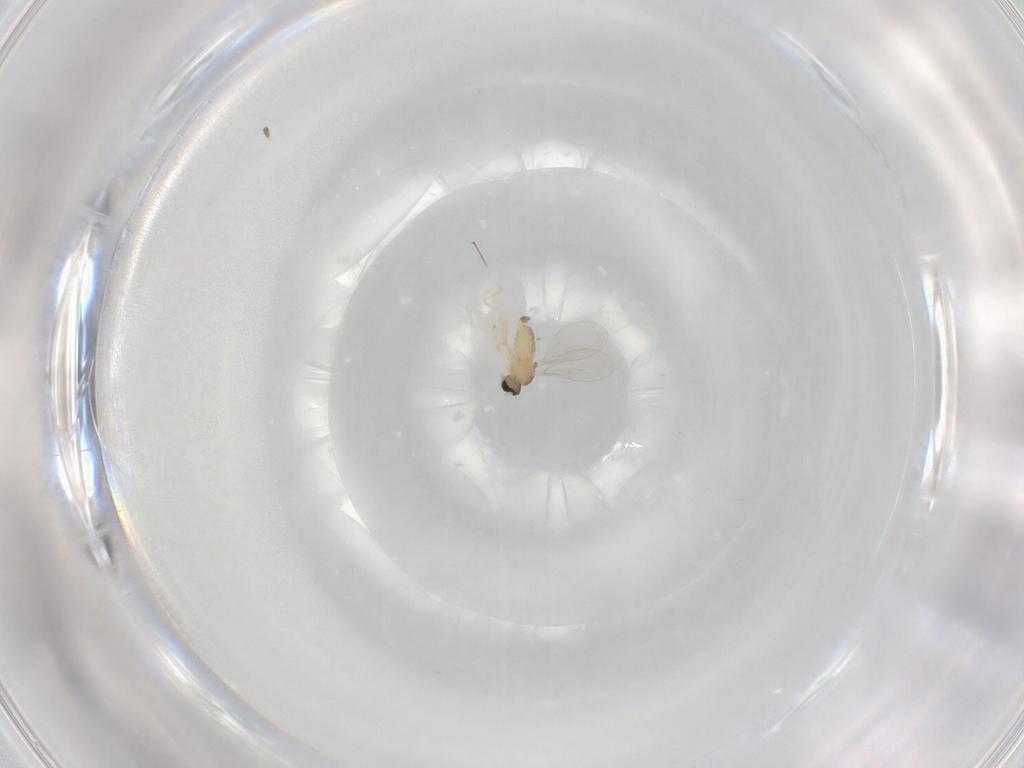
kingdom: Animalia
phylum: Arthropoda
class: Insecta
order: Diptera
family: Cecidomyiidae
